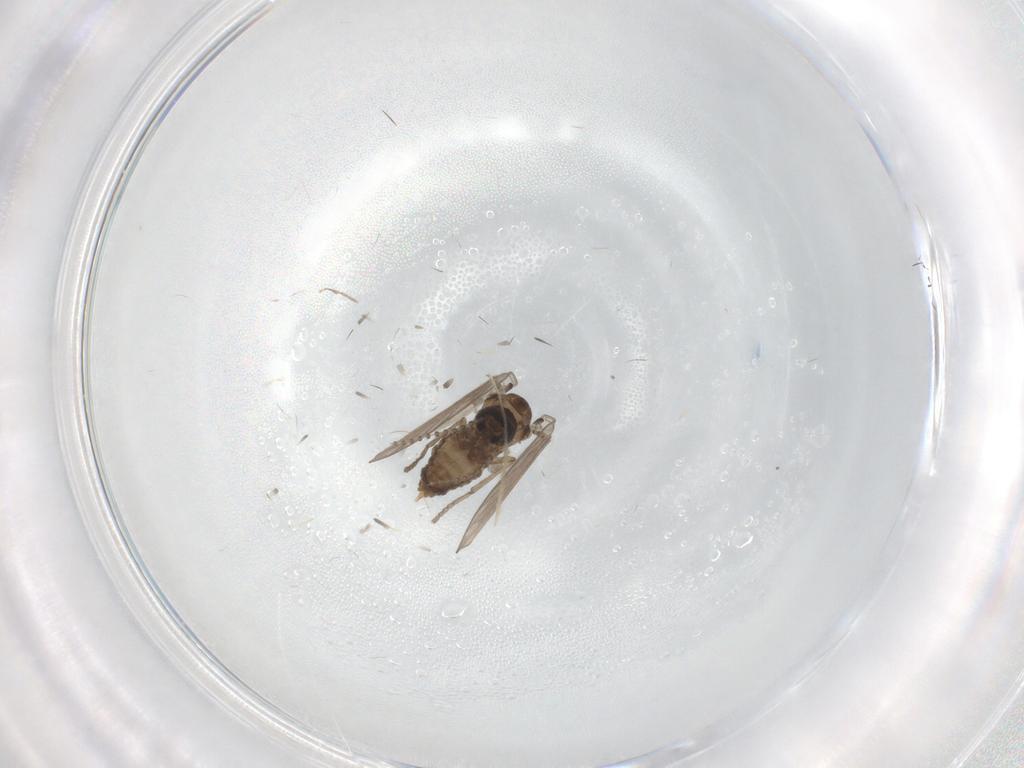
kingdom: Animalia
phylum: Arthropoda
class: Insecta
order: Diptera
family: Psychodidae
